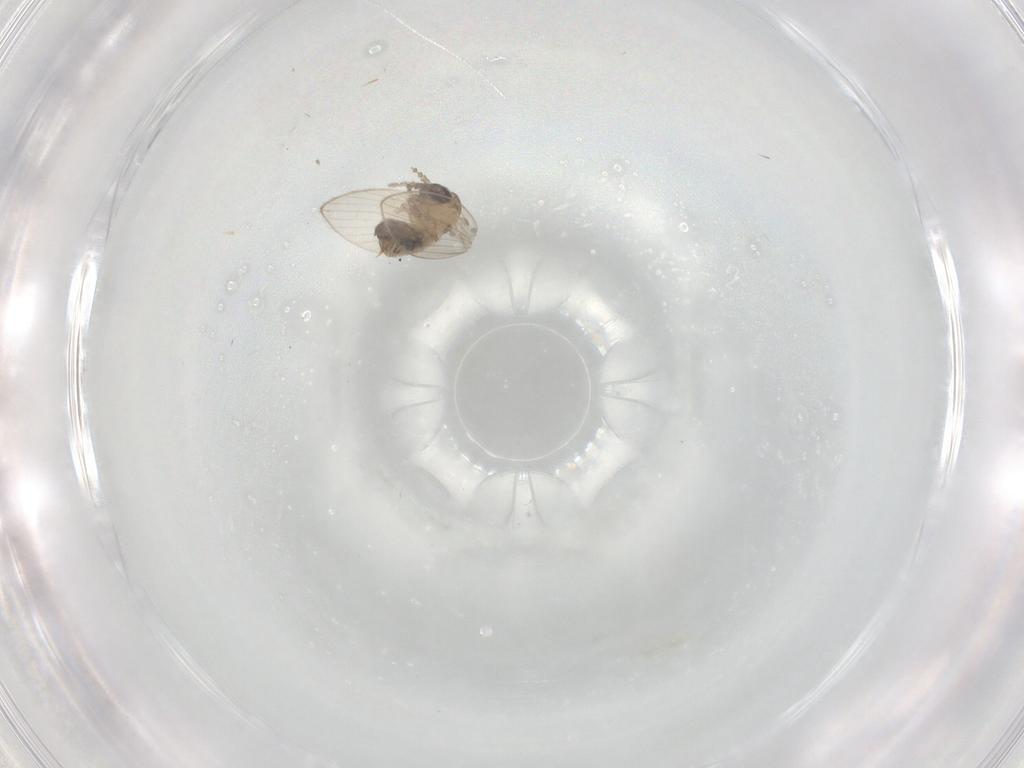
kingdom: Animalia
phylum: Arthropoda
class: Insecta
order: Diptera
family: Psychodidae
